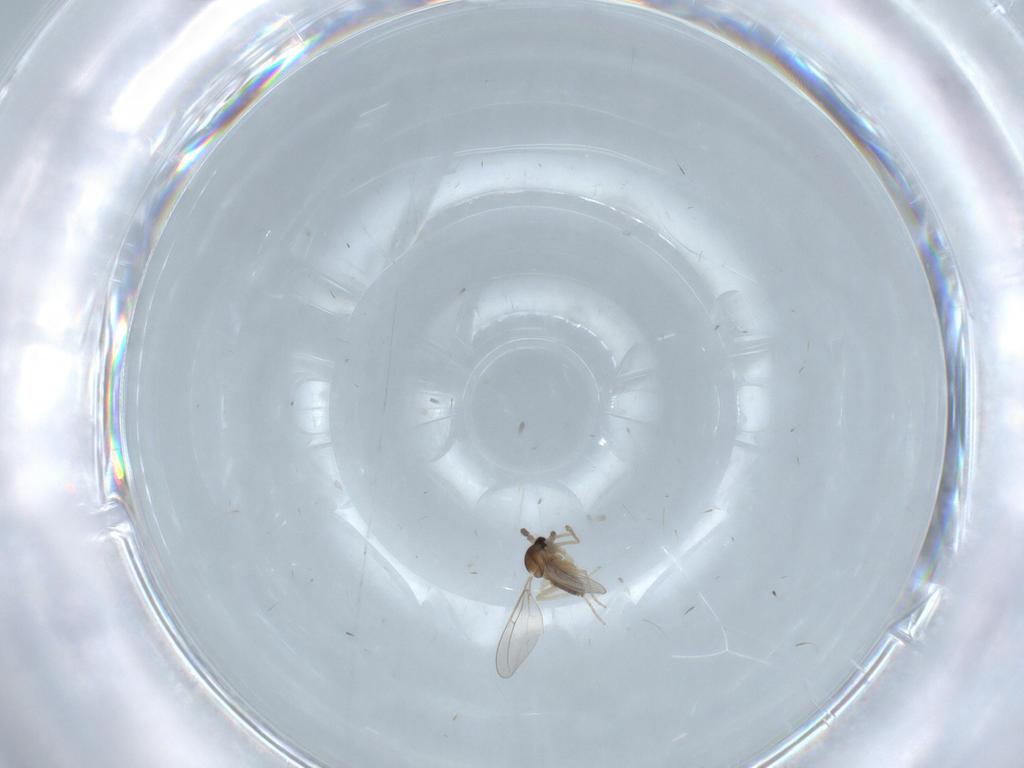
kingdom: Animalia
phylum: Arthropoda
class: Insecta
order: Diptera
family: Cecidomyiidae
